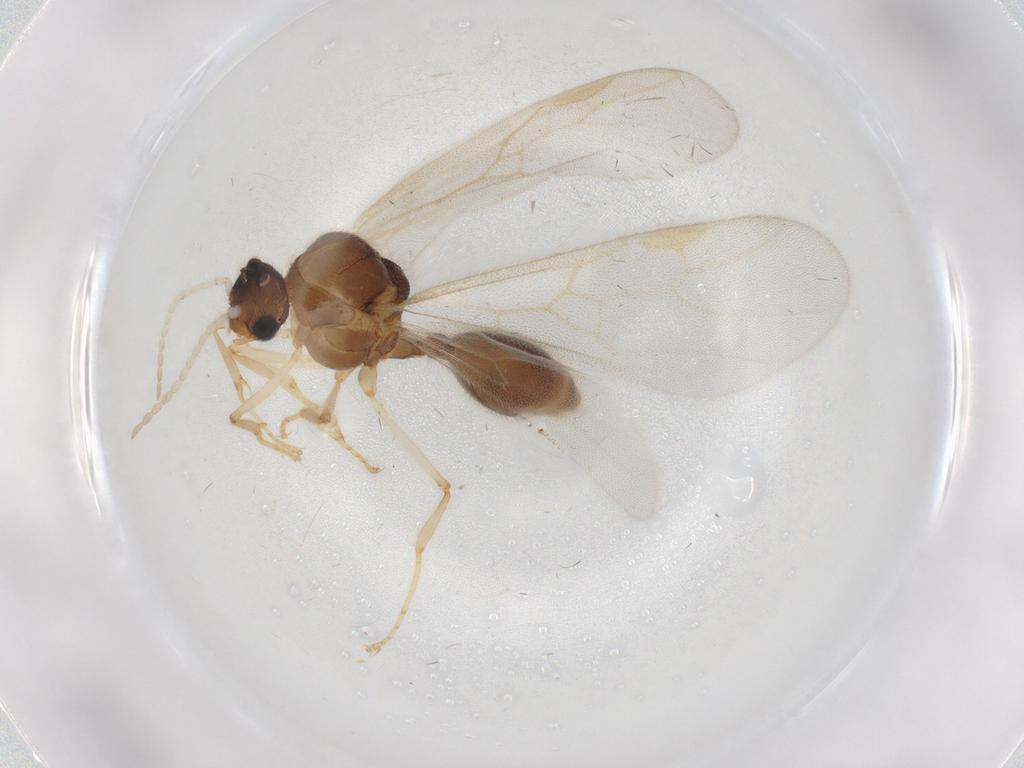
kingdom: Animalia
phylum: Arthropoda
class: Insecta
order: Hymenoptera
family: Formicidae
